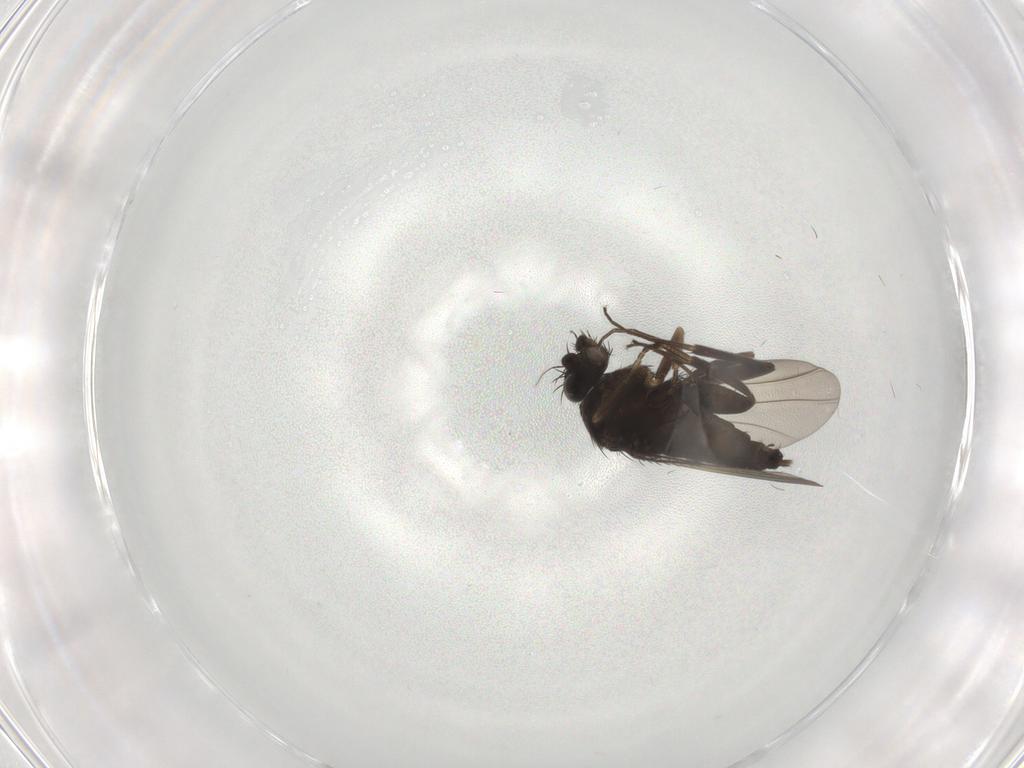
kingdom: Animalia
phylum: Arthropoda
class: Insecta
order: Diptera
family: Phoridae
